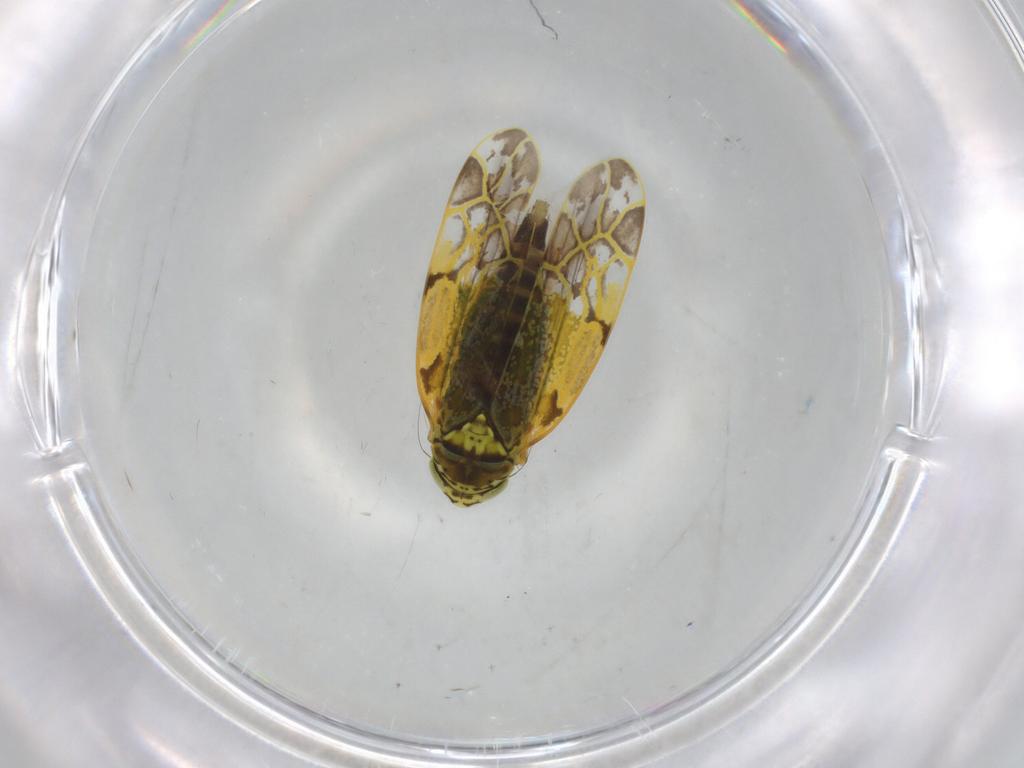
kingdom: Animalia
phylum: Arthropoda
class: Insecta
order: Hemiptera
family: Cicadellidae
